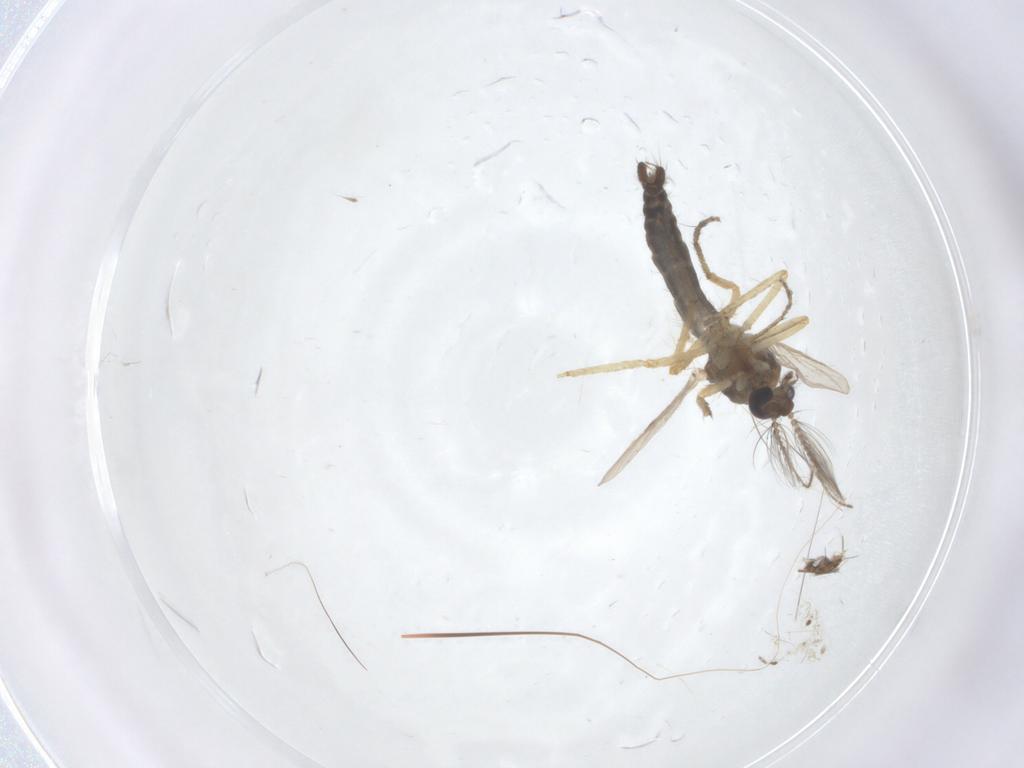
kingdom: Animalia
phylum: Arthropoda
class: Insecta
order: Diptera
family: Ceratopogonidae
